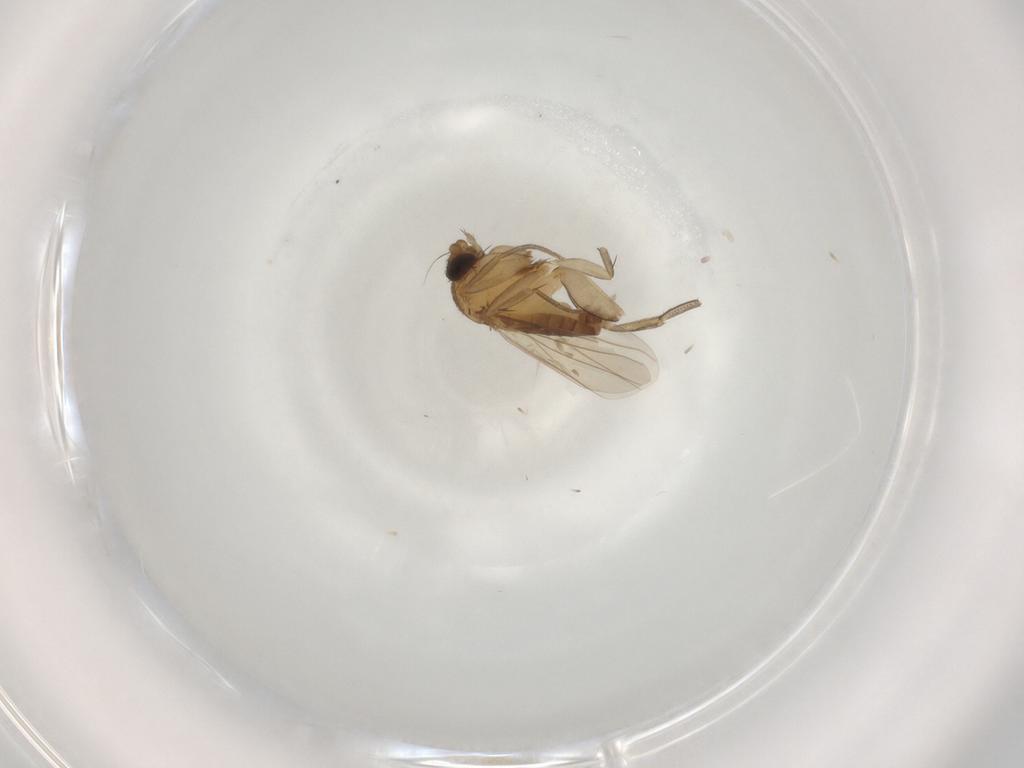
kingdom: Animalia
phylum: Arthropoda
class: Insecta
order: Diptera
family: Phoridae
